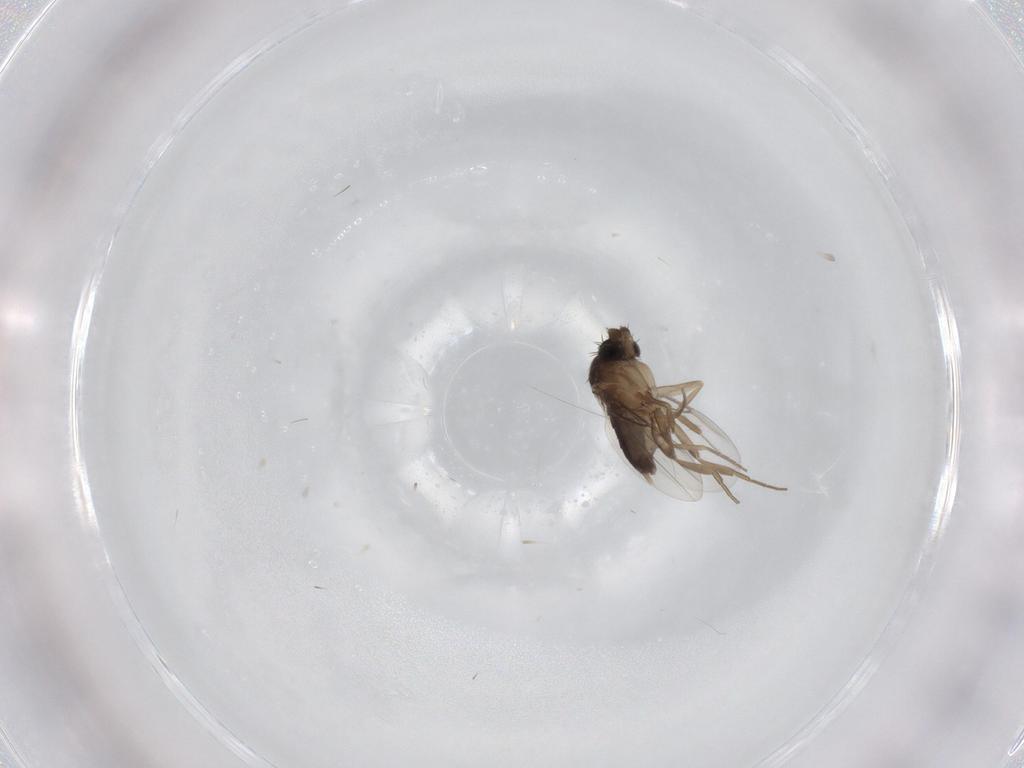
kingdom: Animalia
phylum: Arthropoda
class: Insecta
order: Diptera
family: Phoridae
